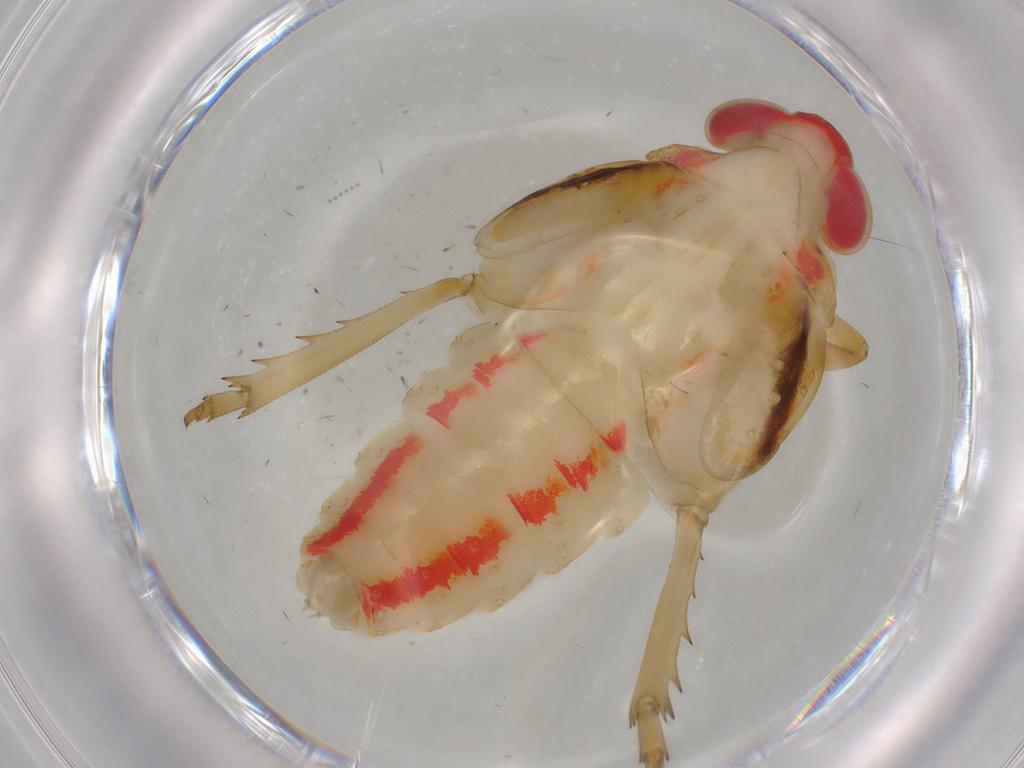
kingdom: Animalia
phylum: Arthropoda
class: Insecta
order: Hemiptera
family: Issidae
